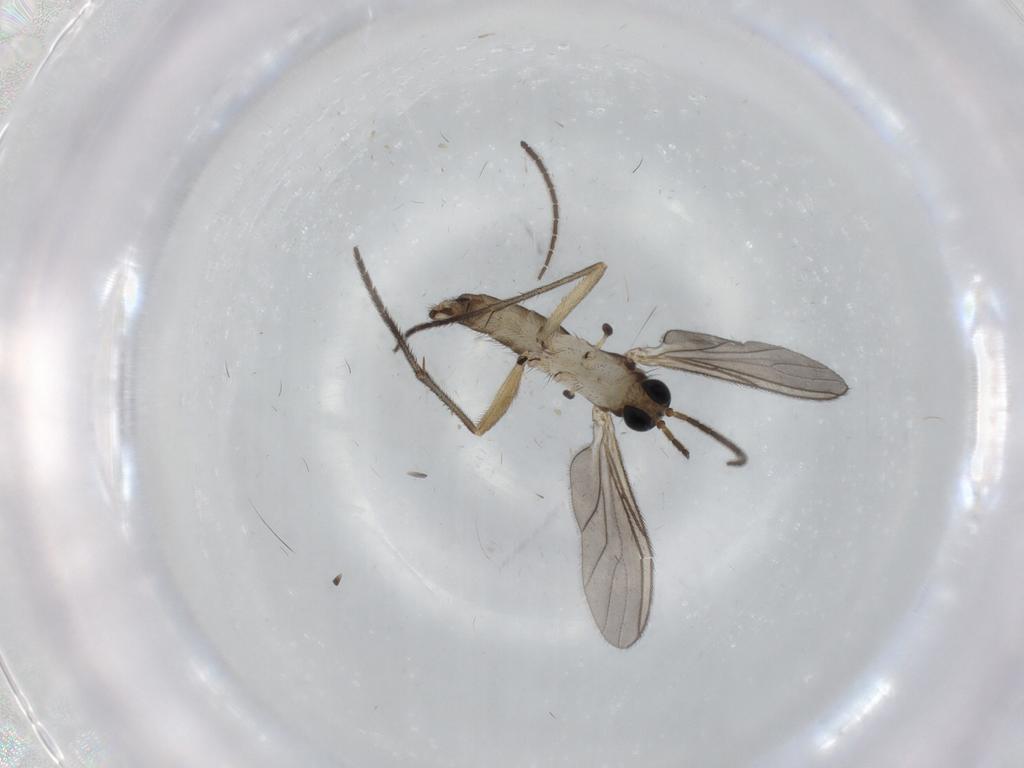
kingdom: Animalia
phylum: Arthropoda
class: Insecta
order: Diptera
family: Sciaridae
